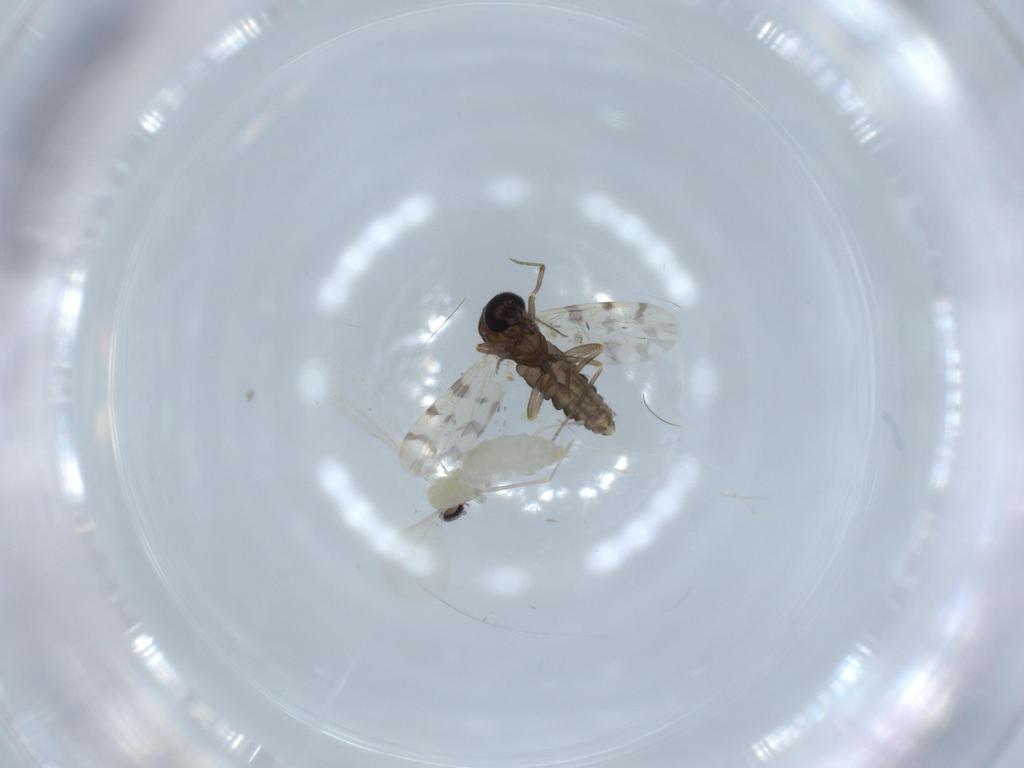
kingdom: Animalia
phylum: Arthropoda
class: Insecta
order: Diptera
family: Cecidomyiidae
